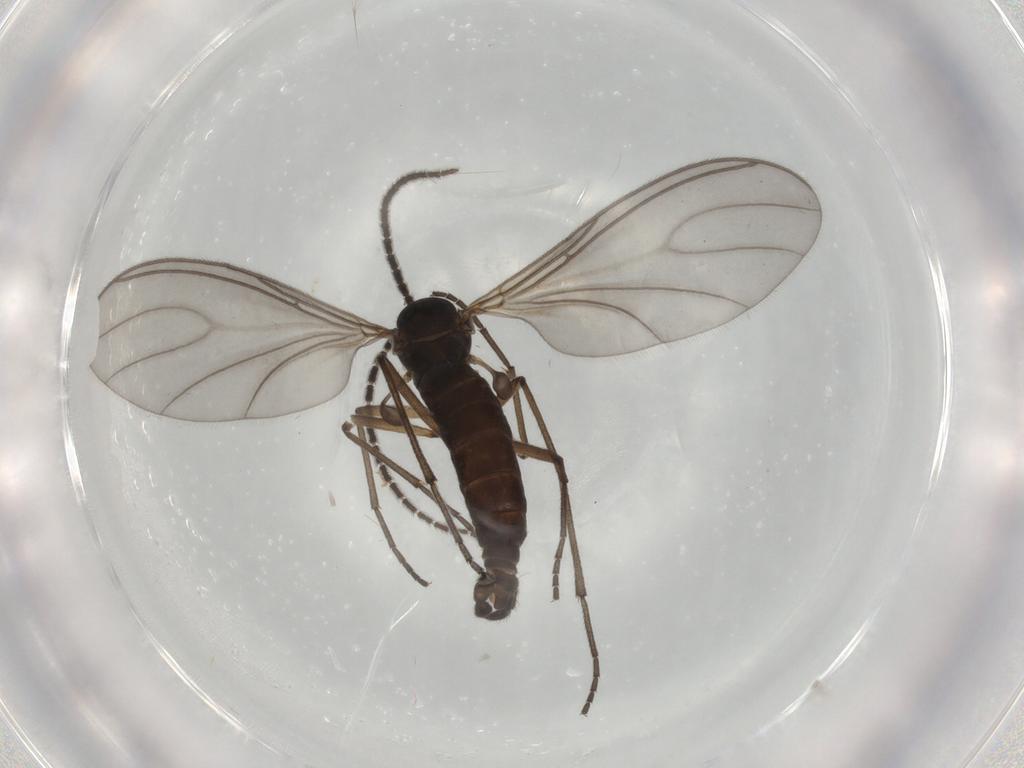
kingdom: Animalia
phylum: Arthropoda
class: Insecta
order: Diptera
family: Sciaridae
